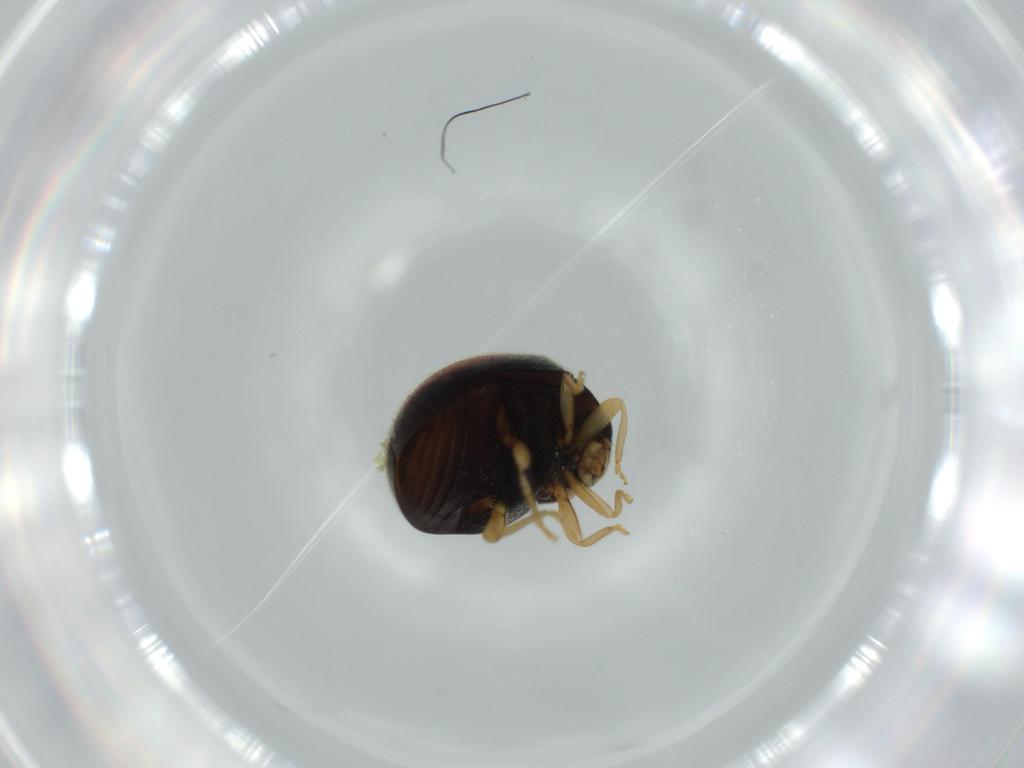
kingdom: Animalia
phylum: Arthropoda
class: Insecta
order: Coleoptera
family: Coccinellidae
